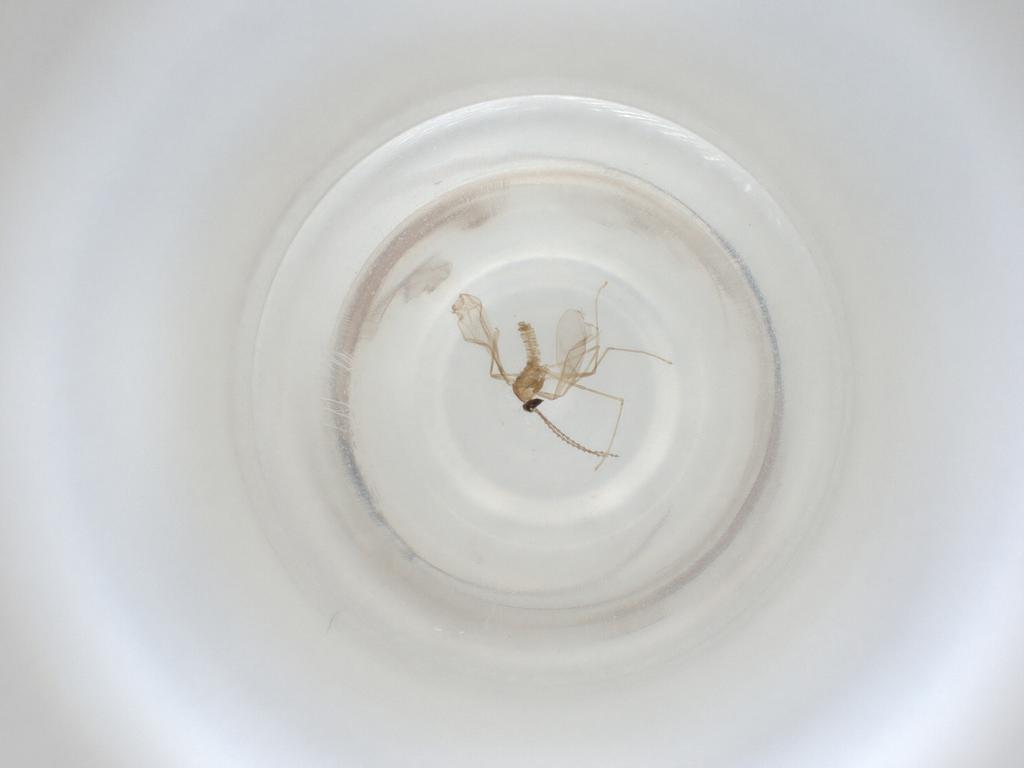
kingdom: Animalia
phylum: Arthropoda
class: Insecta
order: Diptera
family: Cecidomyiidae
